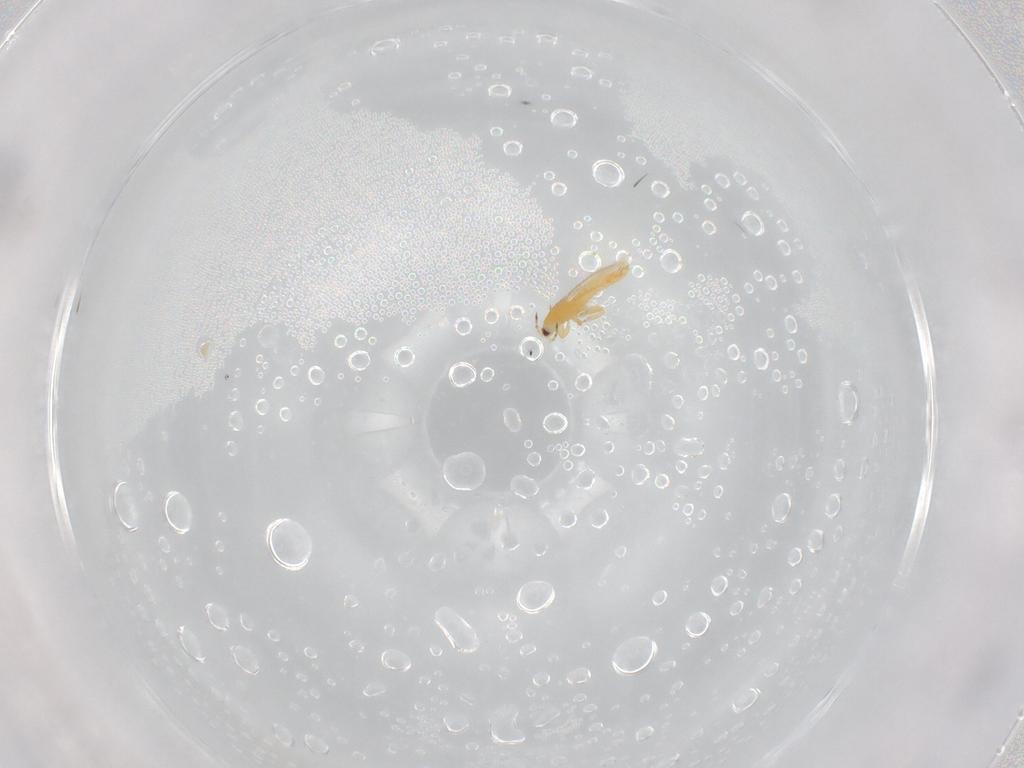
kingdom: Animalia
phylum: Arthropoda
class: Insecta
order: Thysanoptera
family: Thripidae
